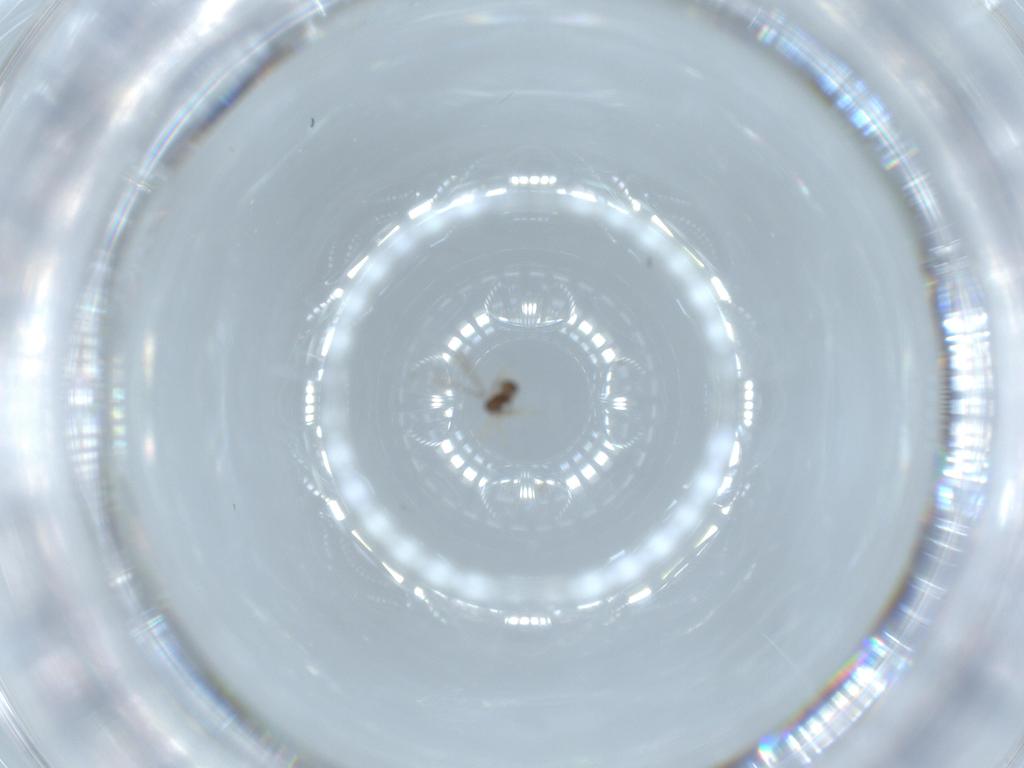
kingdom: Animalia
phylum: Arthropoda
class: Insecta
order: Hymenoptera
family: Formicidae
